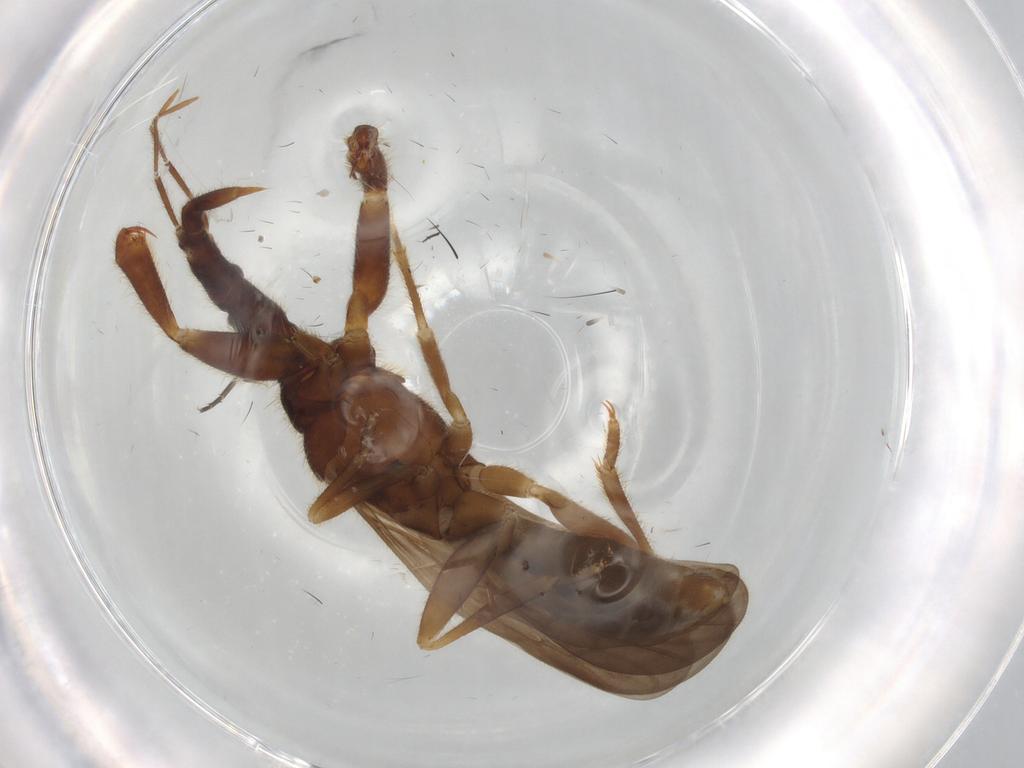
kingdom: Animalia
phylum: Arthropoda
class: Insecta
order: Hemiptera
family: Enicocephalidae
